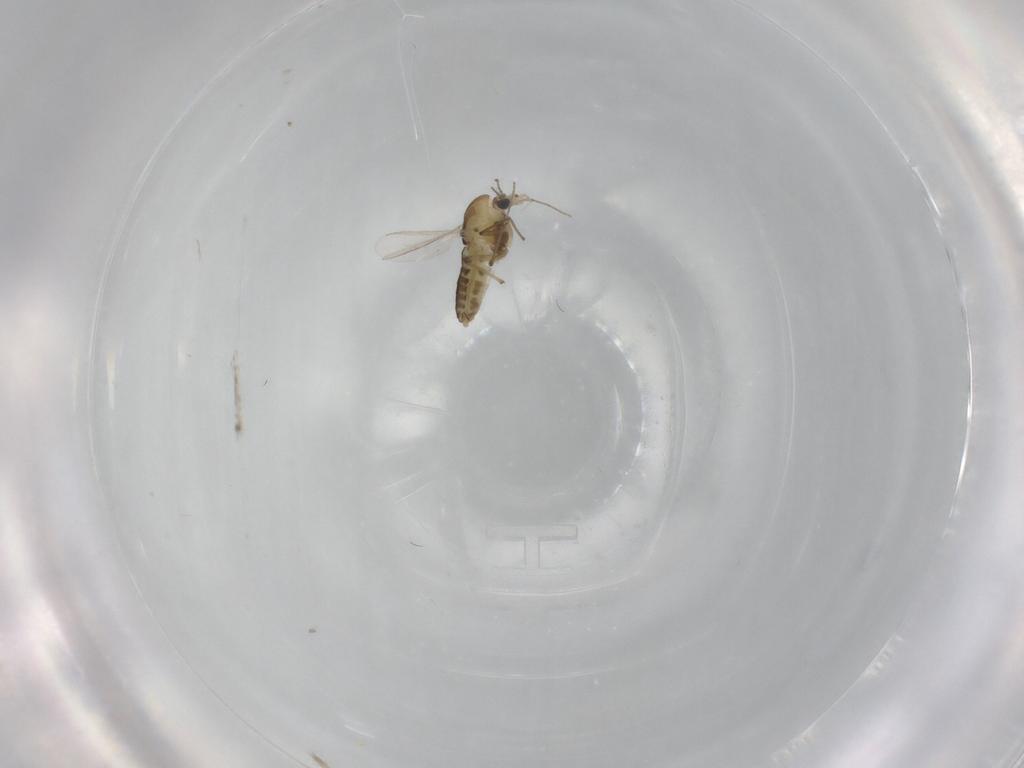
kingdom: Animalia
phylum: Arthropoda
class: Insecta
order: Diptera
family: Chironomidae
